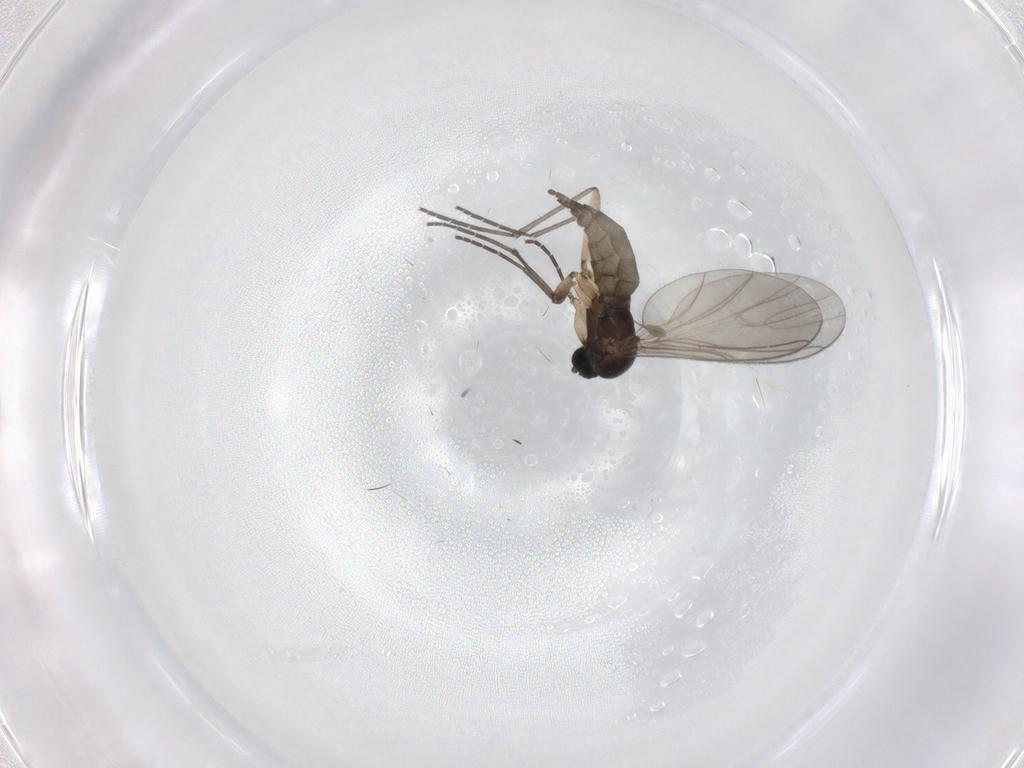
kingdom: Animalia
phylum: Arthropoda
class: Insecta
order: Diptera
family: Sciaridae
